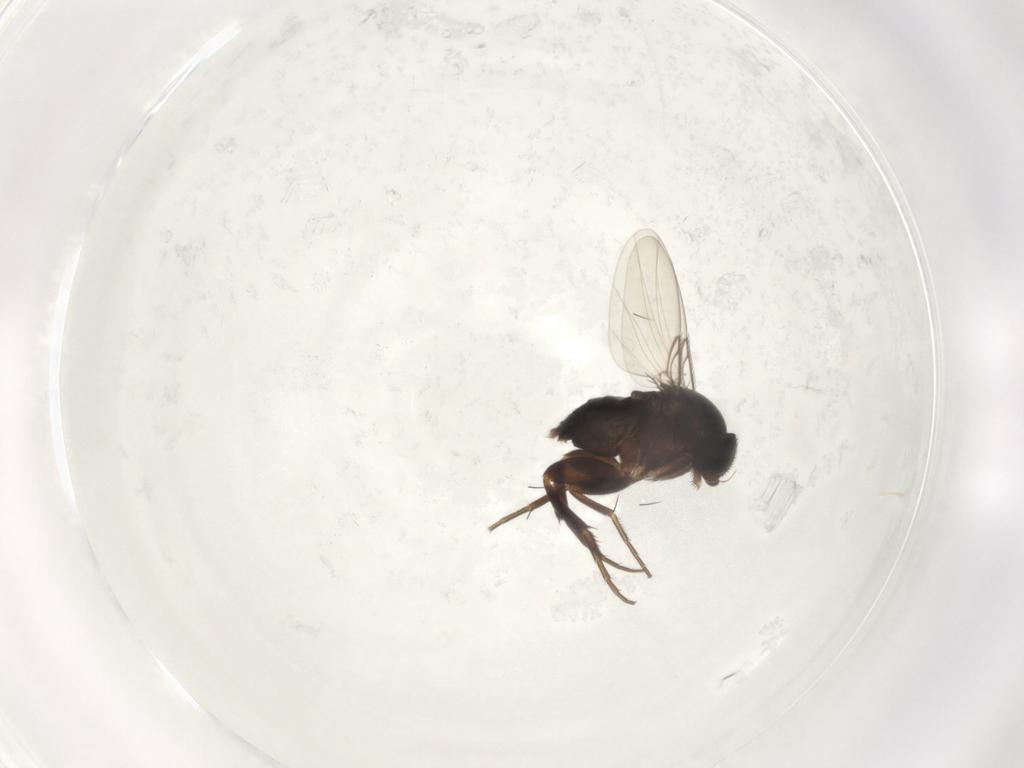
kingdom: Animalia
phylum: Arthropoda
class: Insecta
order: Diptera
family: Phoridae
